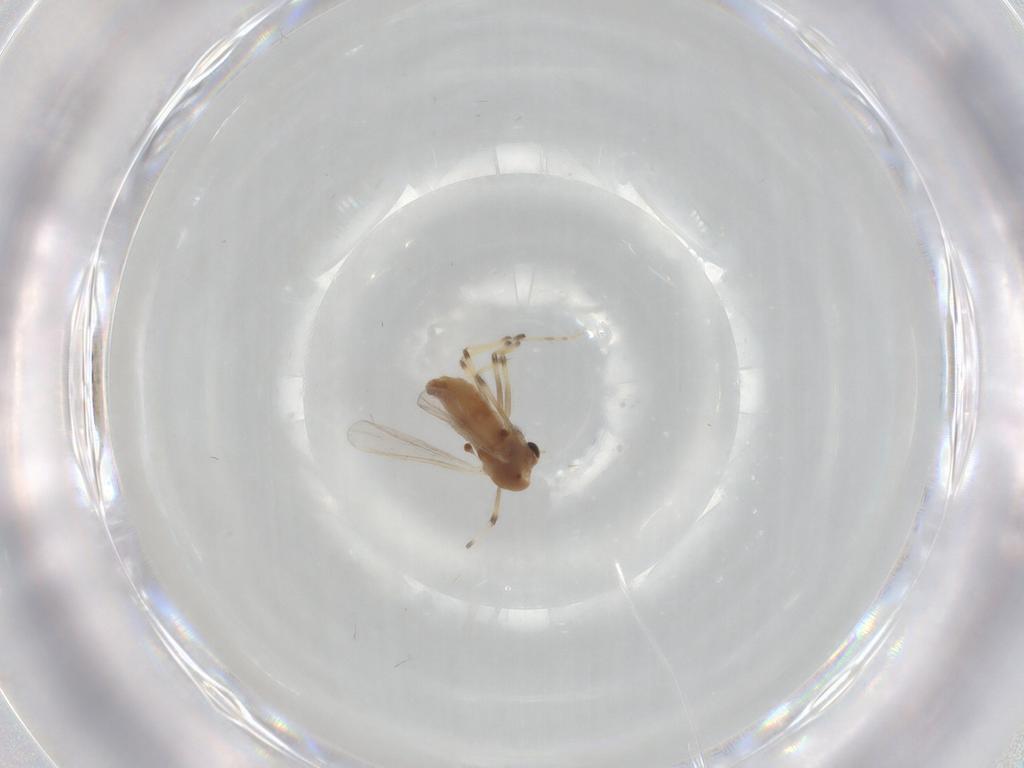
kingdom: Animalia
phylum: Arthropoda
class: Insecta
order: Diptera
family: Chironomidae
